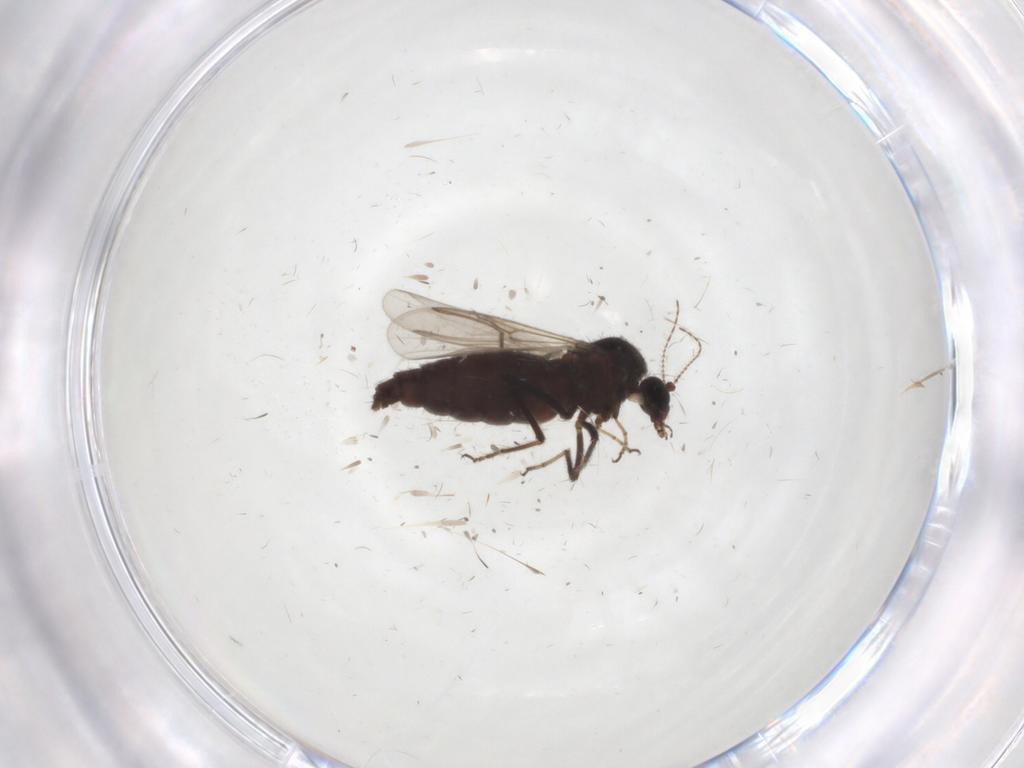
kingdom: Animalia
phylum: Arthropoda
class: Insecta
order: Diptera
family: Ceratopogonidae
